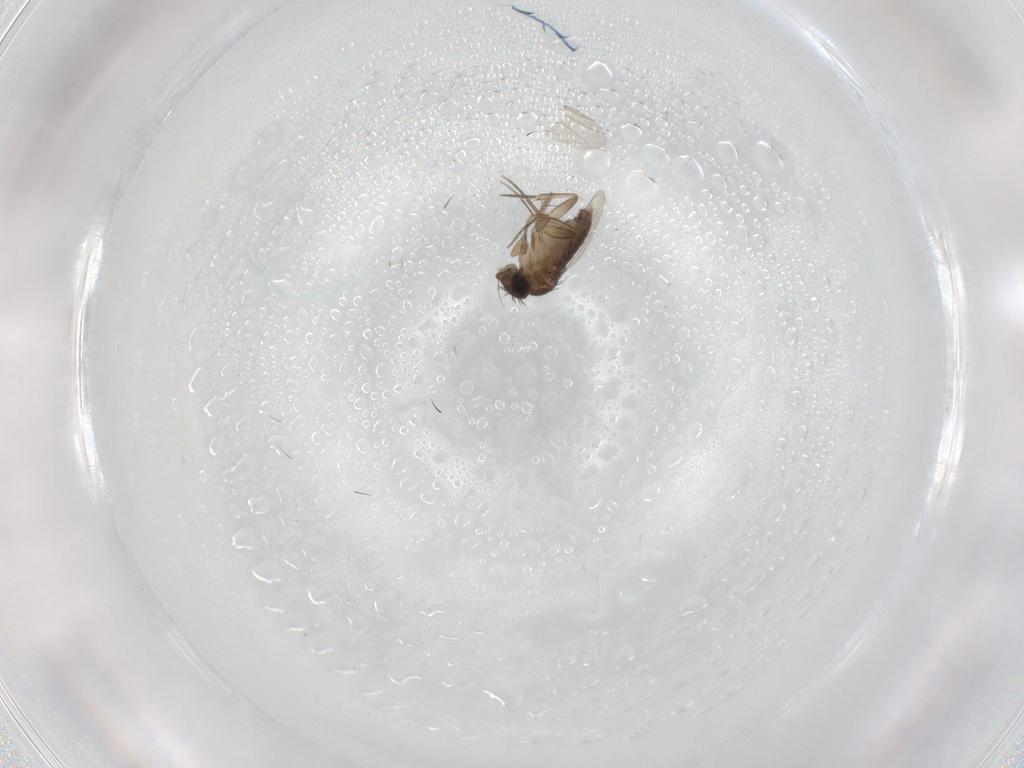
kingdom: Animalia
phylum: Arthropoda
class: Insecta
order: Diptera
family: Phoridae
